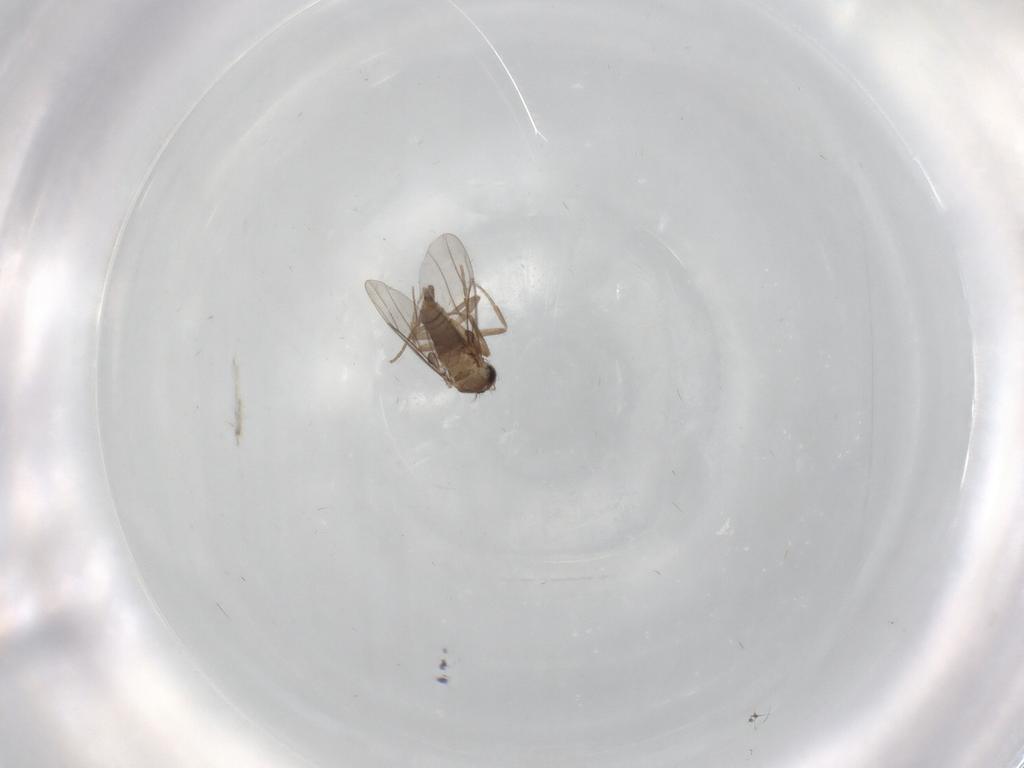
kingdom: Animalia
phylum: Arthropoda
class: Insecta
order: Diptera
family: Cecidomyiidae
